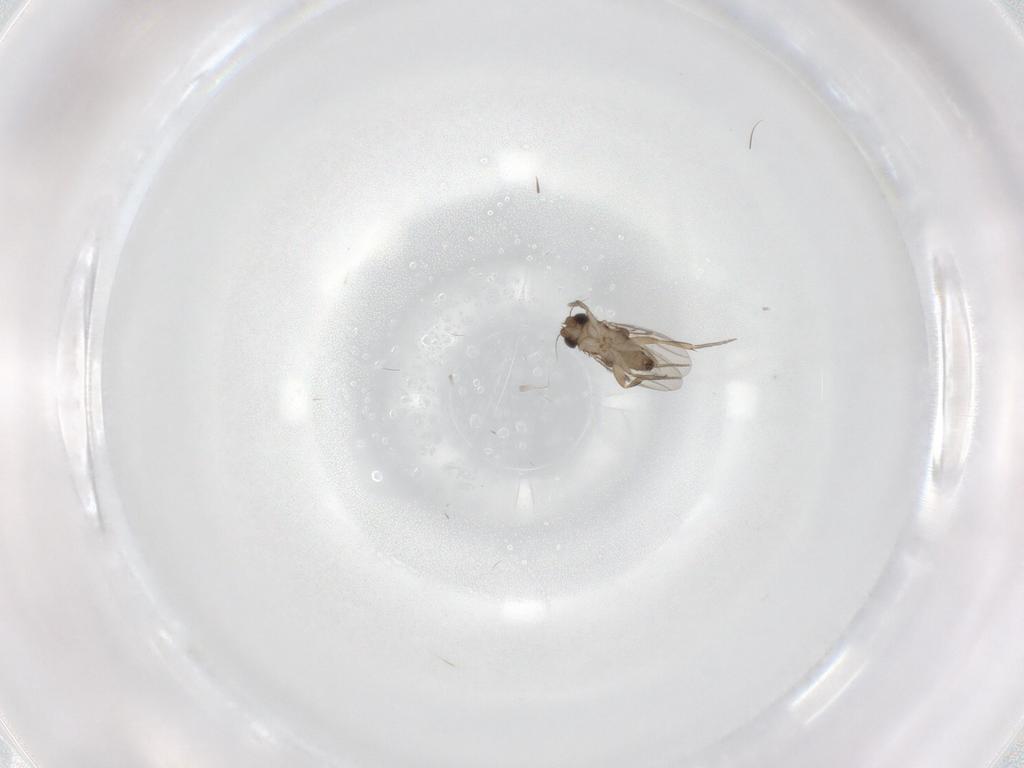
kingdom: Animalia
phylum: Arthropoda
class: Insecta
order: Diptera
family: Phoridae
